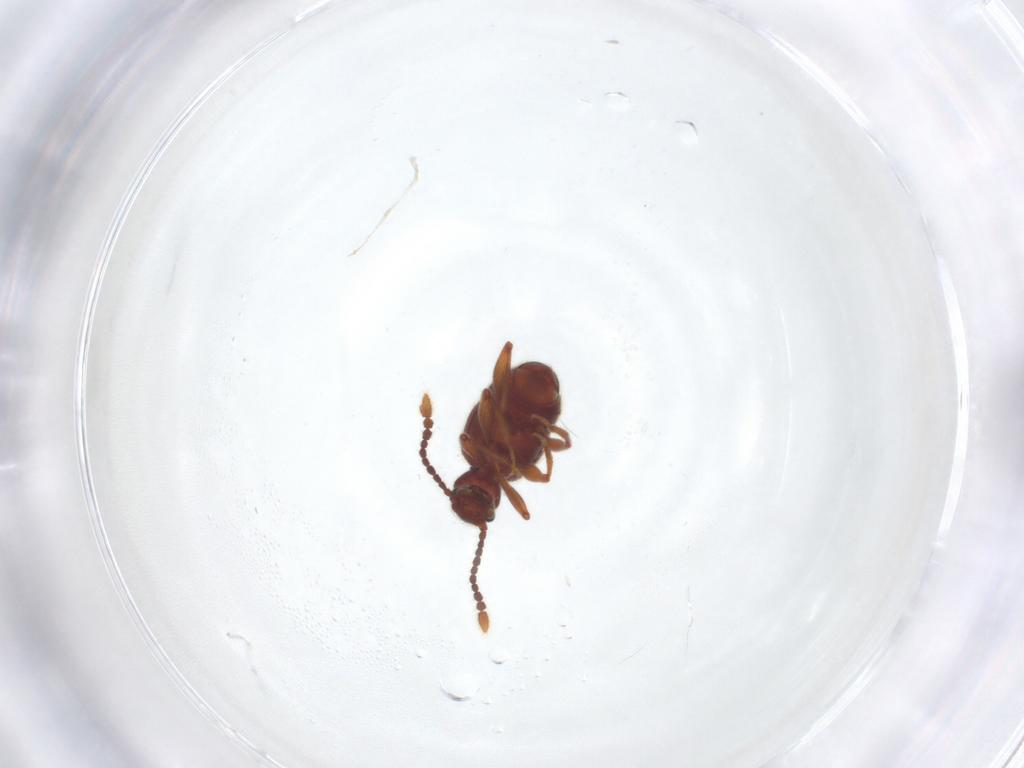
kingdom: Animalia
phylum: Arthropoda
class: Insecta
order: Coleoptera
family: Staphylinidae
